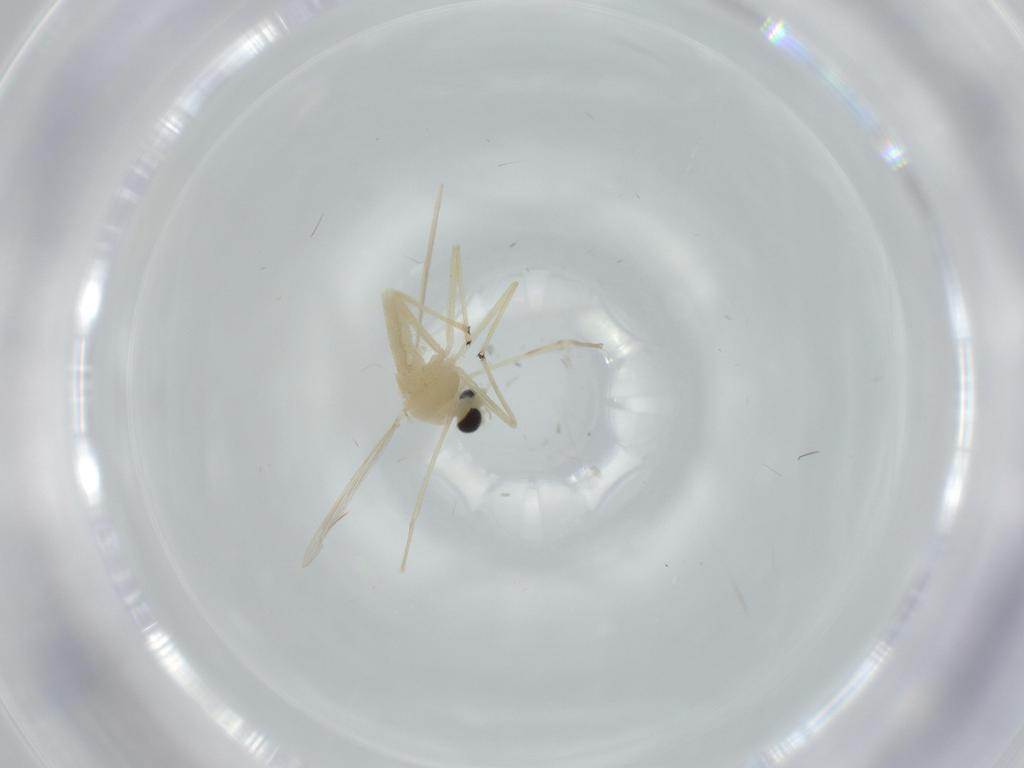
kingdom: Animalia
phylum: Arthropoda
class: Insecta
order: Diptera
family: Chironomidae
